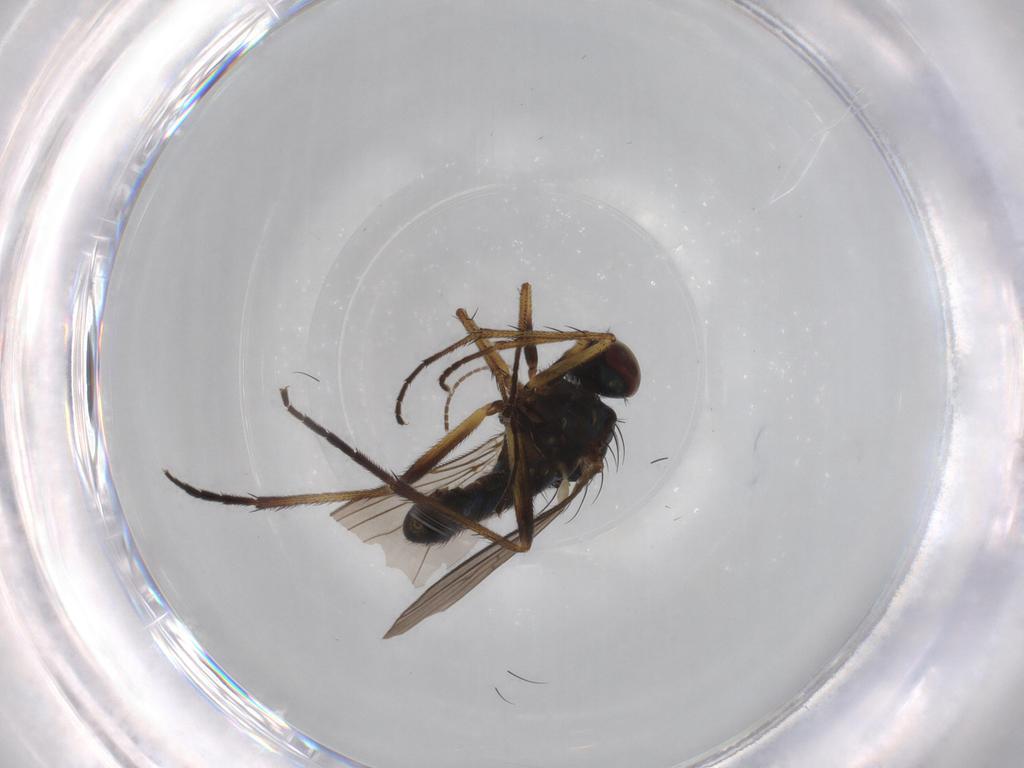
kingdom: Animalia
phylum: Arthropoda
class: Insecta
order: Diptera
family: Dolichopodidae
